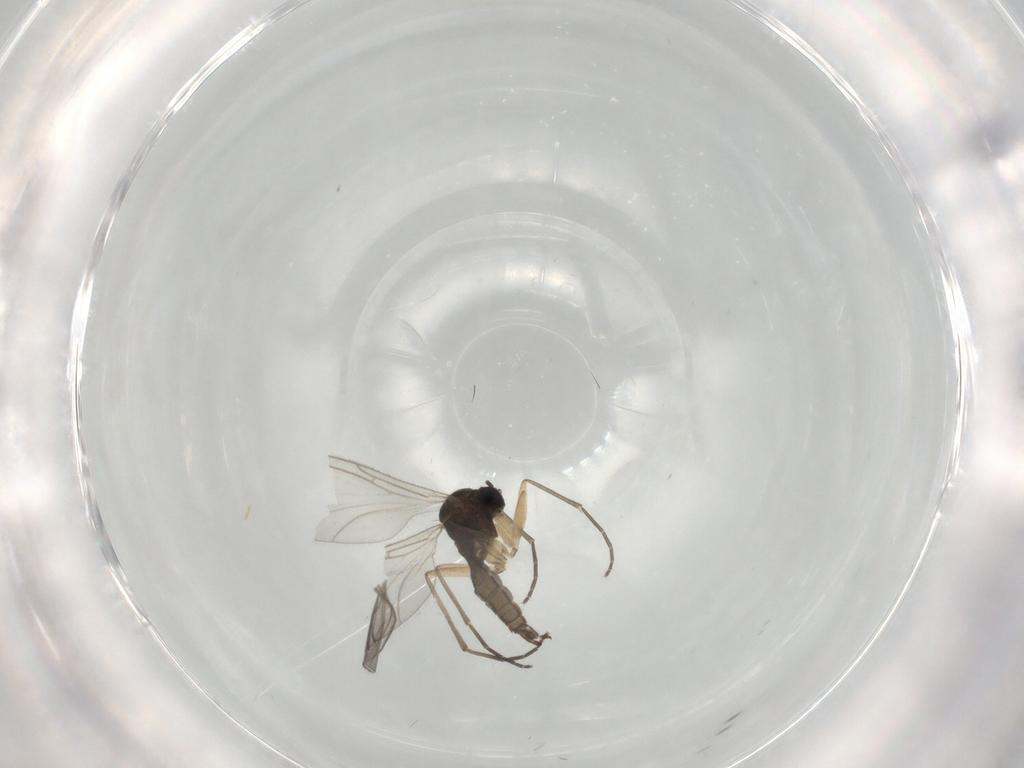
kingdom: Animalia
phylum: Arthropoda
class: Insecta
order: Diptera
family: Sciaridae
